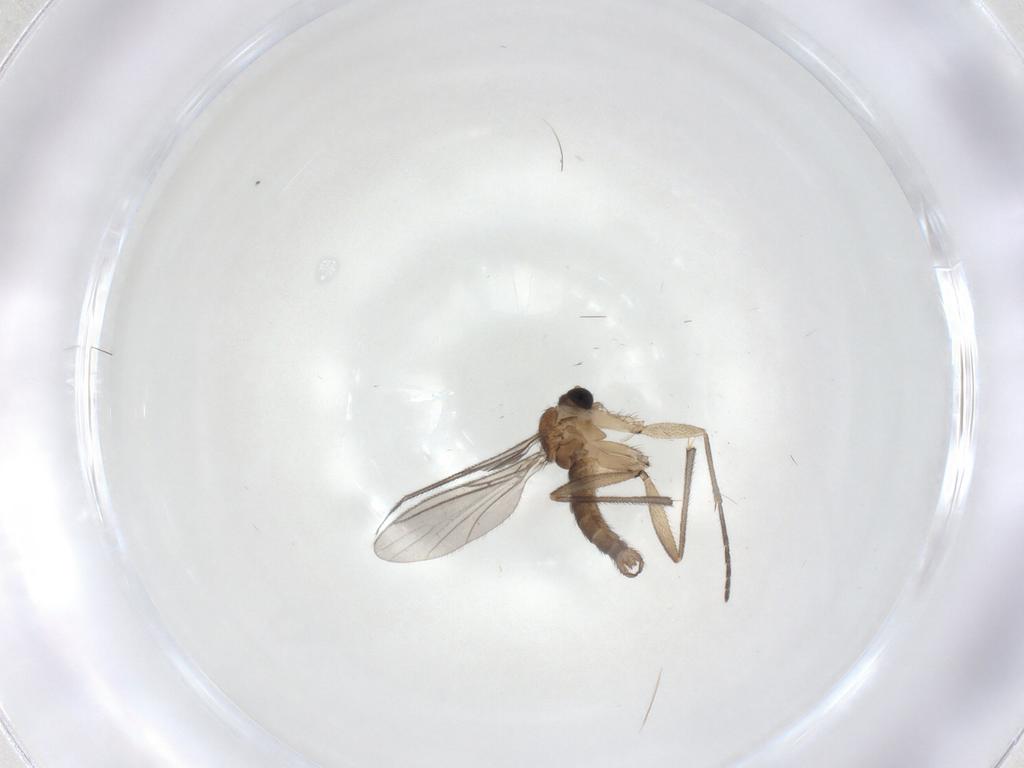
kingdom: Animalia
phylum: Arthropoda
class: Insecta
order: Diptera
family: Sciaridae
